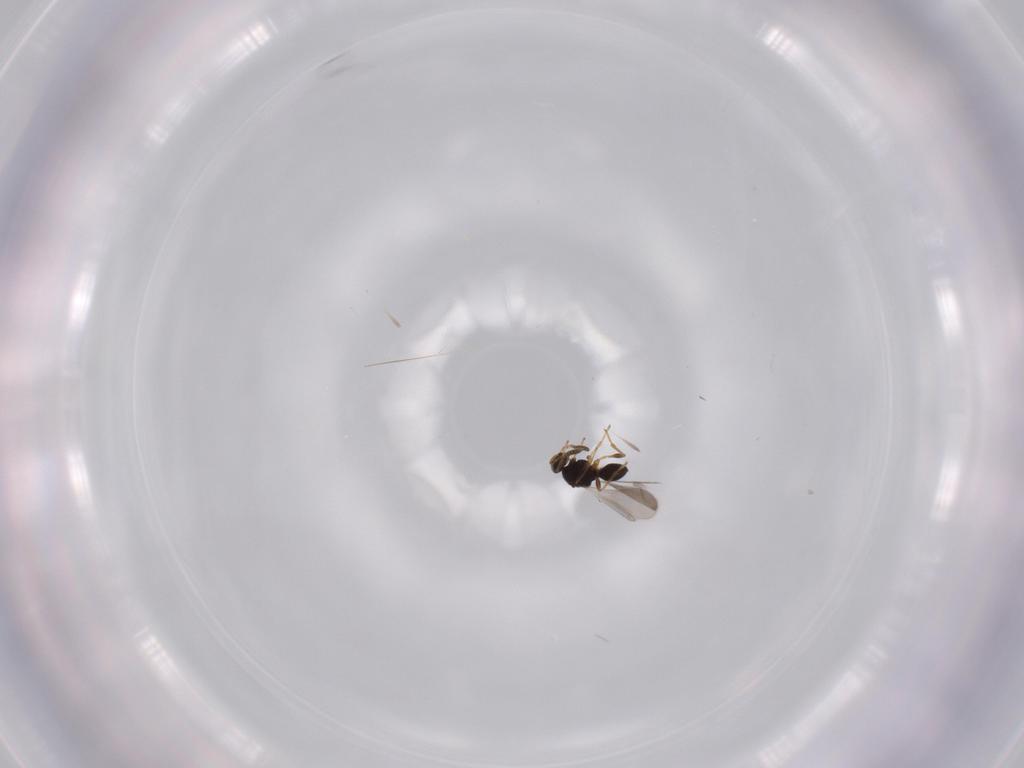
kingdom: Animalia
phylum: Arthropoda
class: Insecta
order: Hymenoptera
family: Platygastridae
